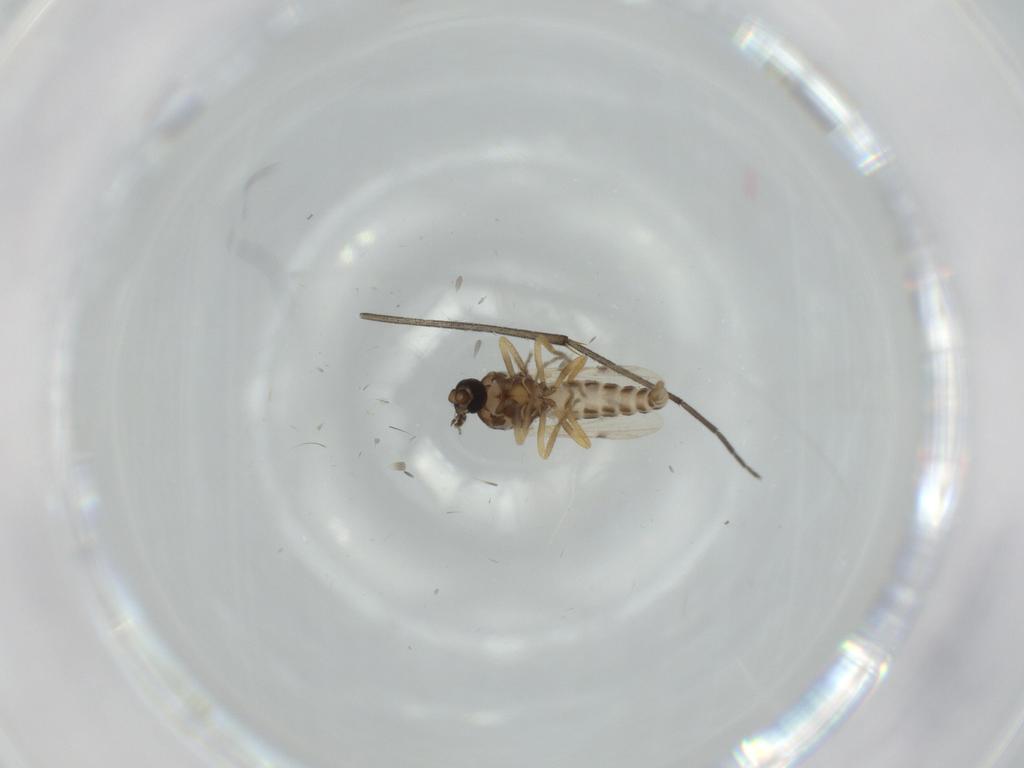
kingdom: Animalia
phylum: Arthropoda
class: Insecta
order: Diptera
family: Ceratopogonidae
